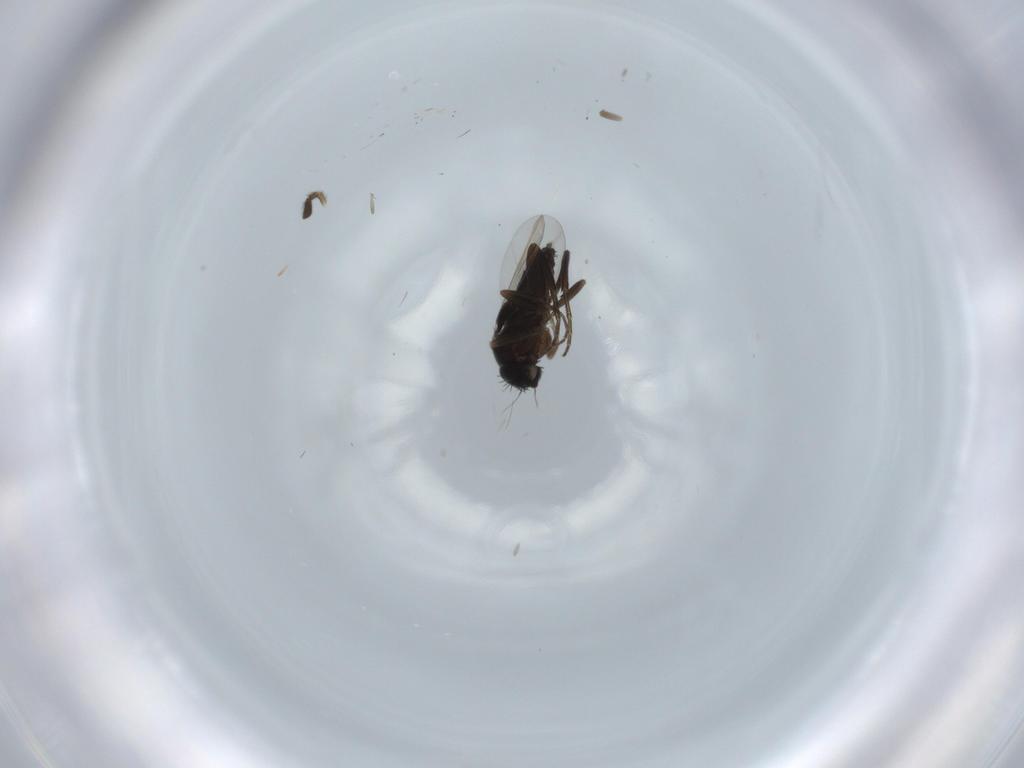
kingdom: Animalia
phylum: Arthropoda
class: Insecta
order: Diptera
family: Phoridae
